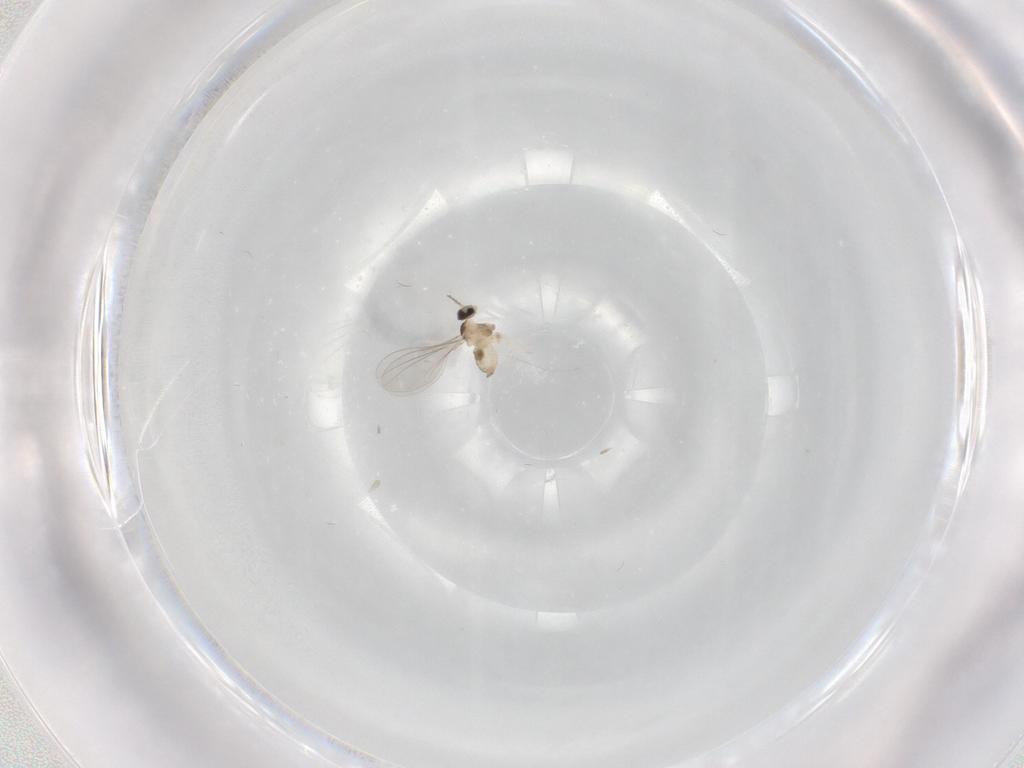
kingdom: Animalia
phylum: Arthropoda
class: Insecta
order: Diptera
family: Cecidomyiidae
